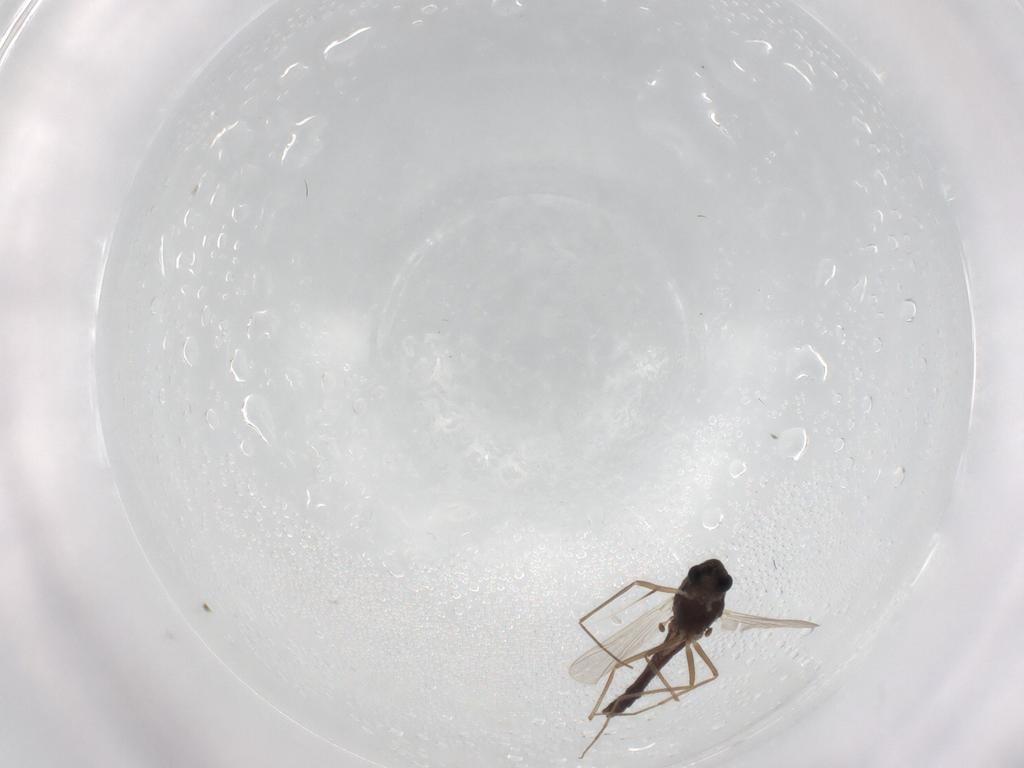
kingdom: Animalia
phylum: Arthropoda
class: Insecta
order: Diptera
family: Chironomidae
